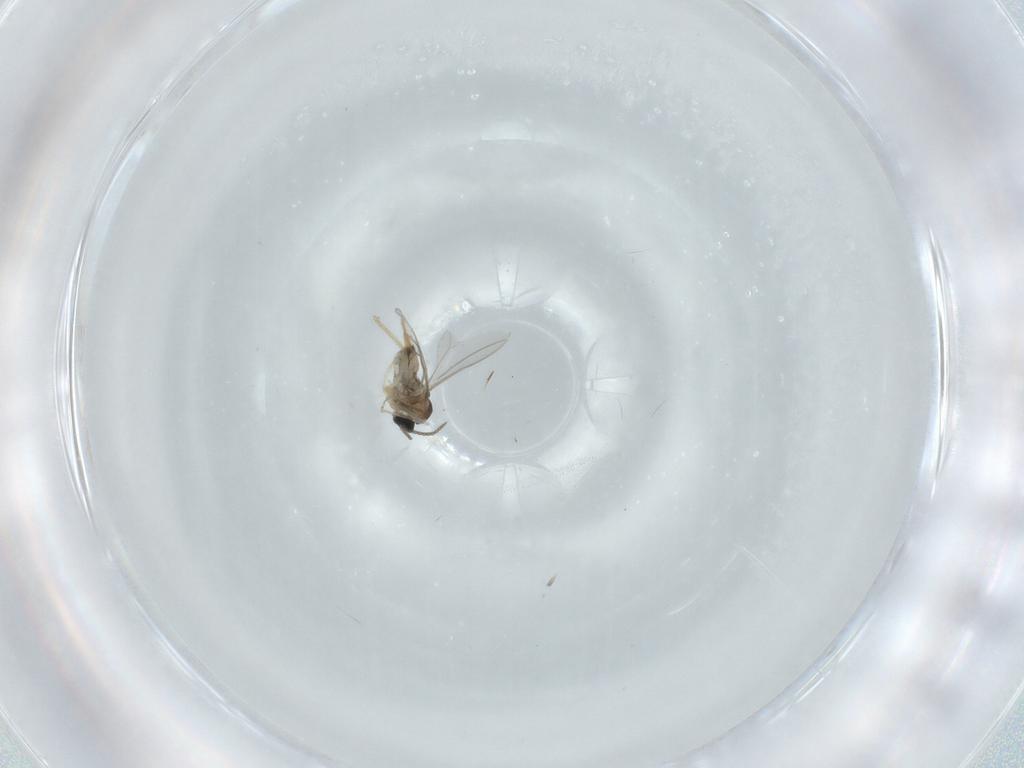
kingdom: Animalia
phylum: Arthropoda
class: Insecta
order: Diptera
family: Cecidomyiidae
